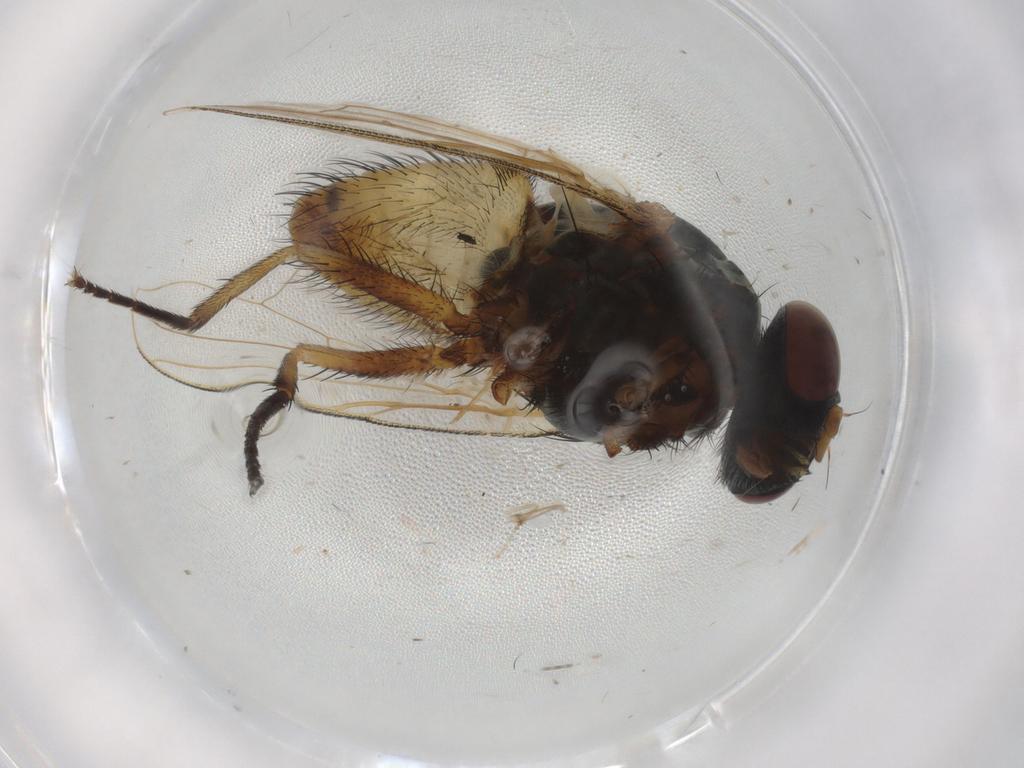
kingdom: Animalia
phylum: Arthropoda
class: Insecta
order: Diptera
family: Muscidae
